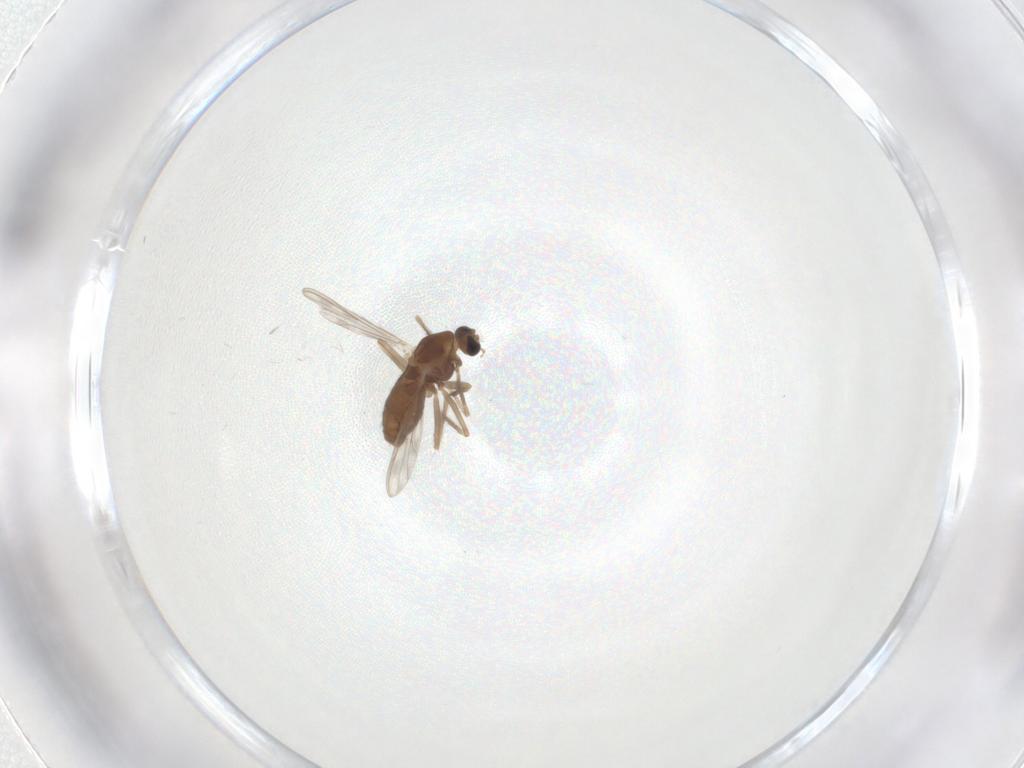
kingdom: Animalia
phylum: Arthropoda
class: Insecta
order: Diptera
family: Chironomidae
